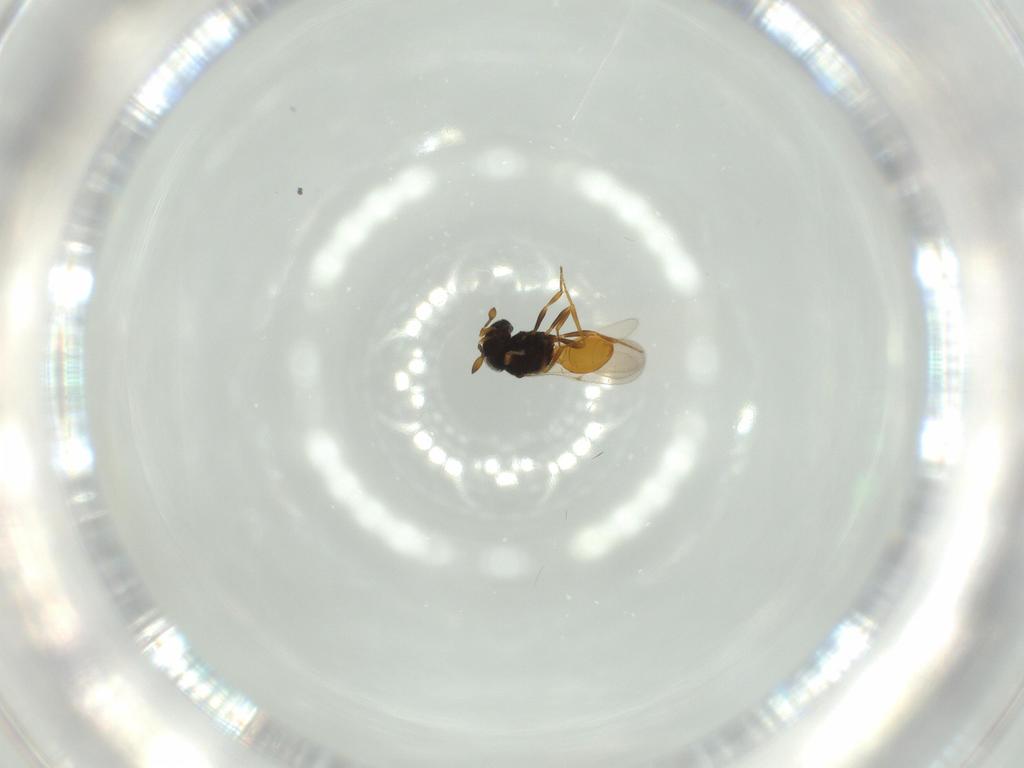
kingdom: Animalia
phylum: Arthropoda
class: Insecta
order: Hymenoptera
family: Scelionidae
